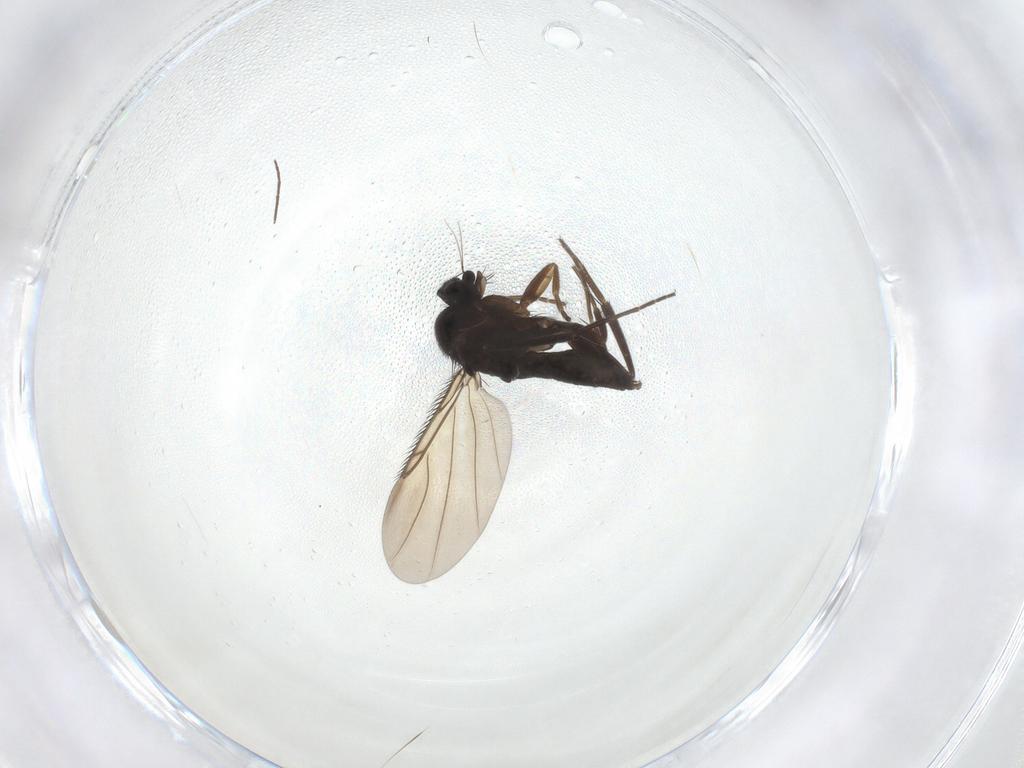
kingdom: Animalia
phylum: Arthropoda
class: Insecta
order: Diptera
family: Phoridae
